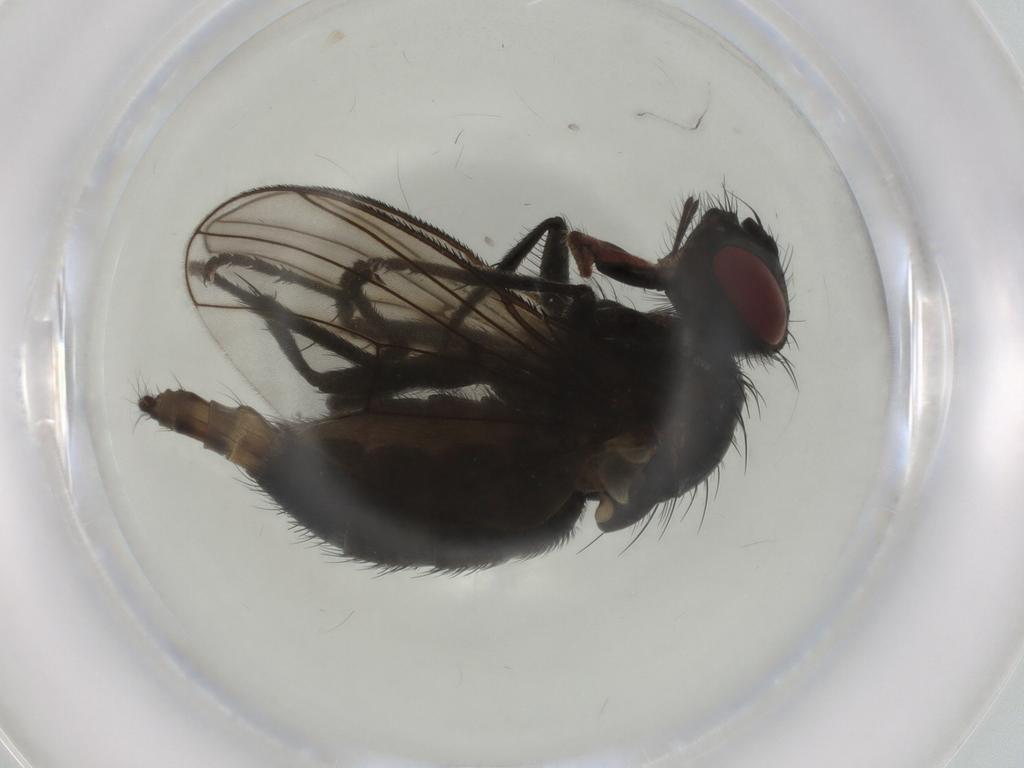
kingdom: Animalia
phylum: Arthropoda
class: Insecta
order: Diptera
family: Muscidae
